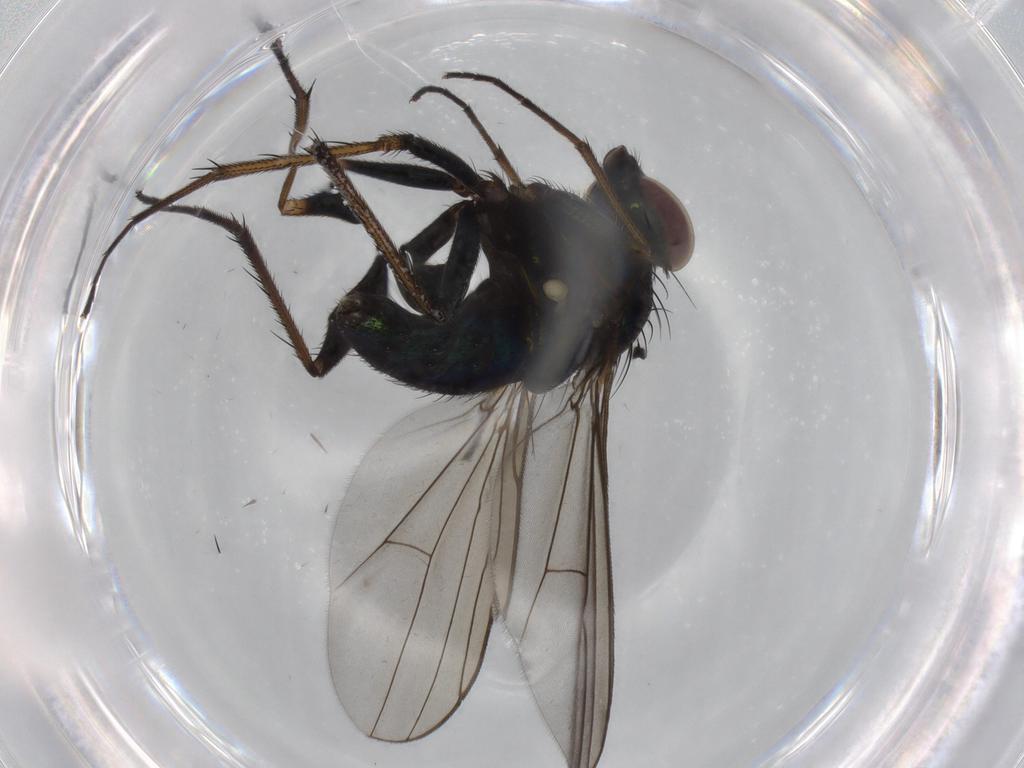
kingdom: Animalia
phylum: Arthropoda
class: Insecta
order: Diptera
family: Dolichopodidae
